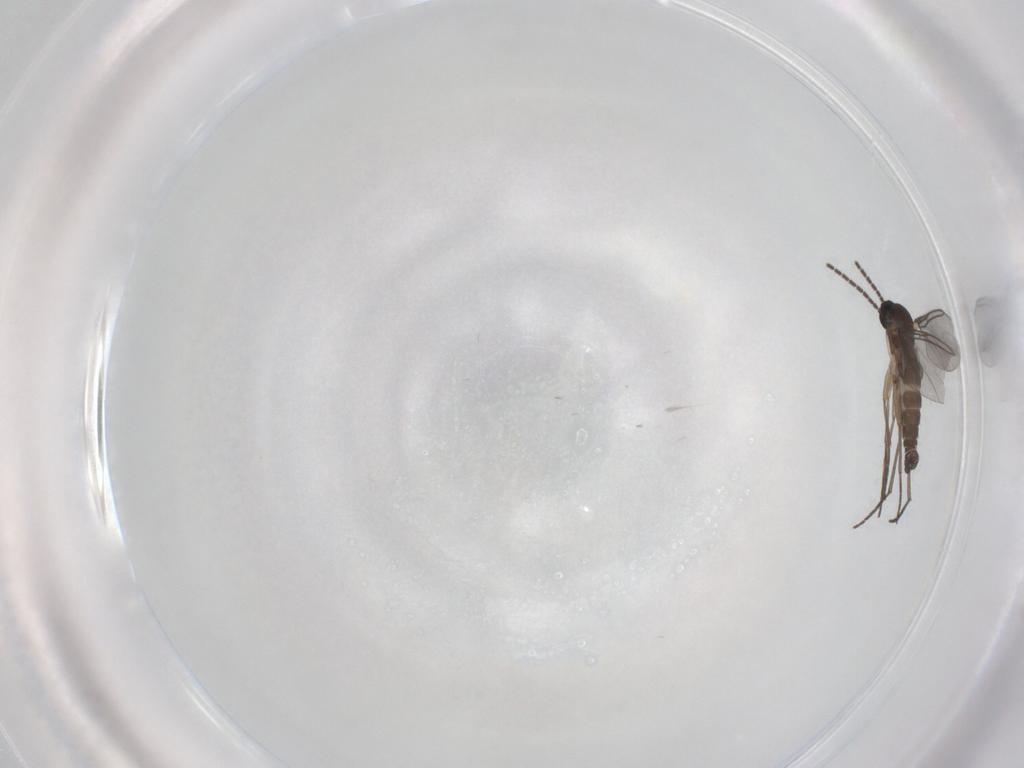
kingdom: Animalia
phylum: Arthropoda
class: Insecta
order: Diptera
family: Sciaridae
